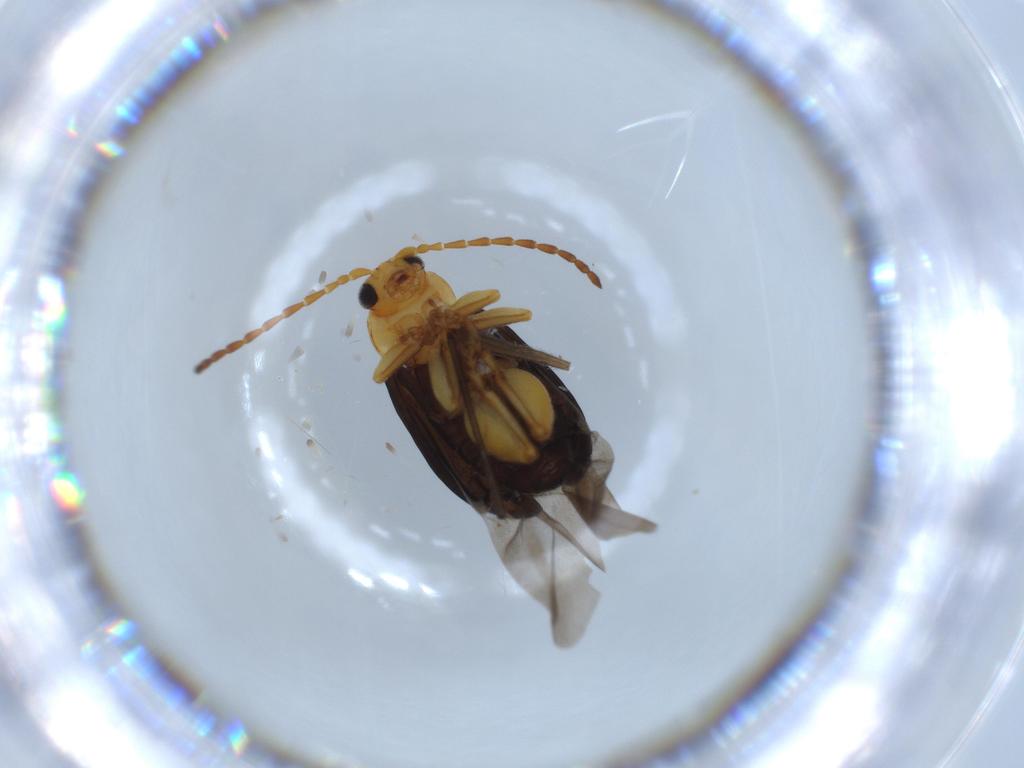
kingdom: Animalia
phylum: Arthropoda
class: Insecta
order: Coleoptera
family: Chrysomelidae
